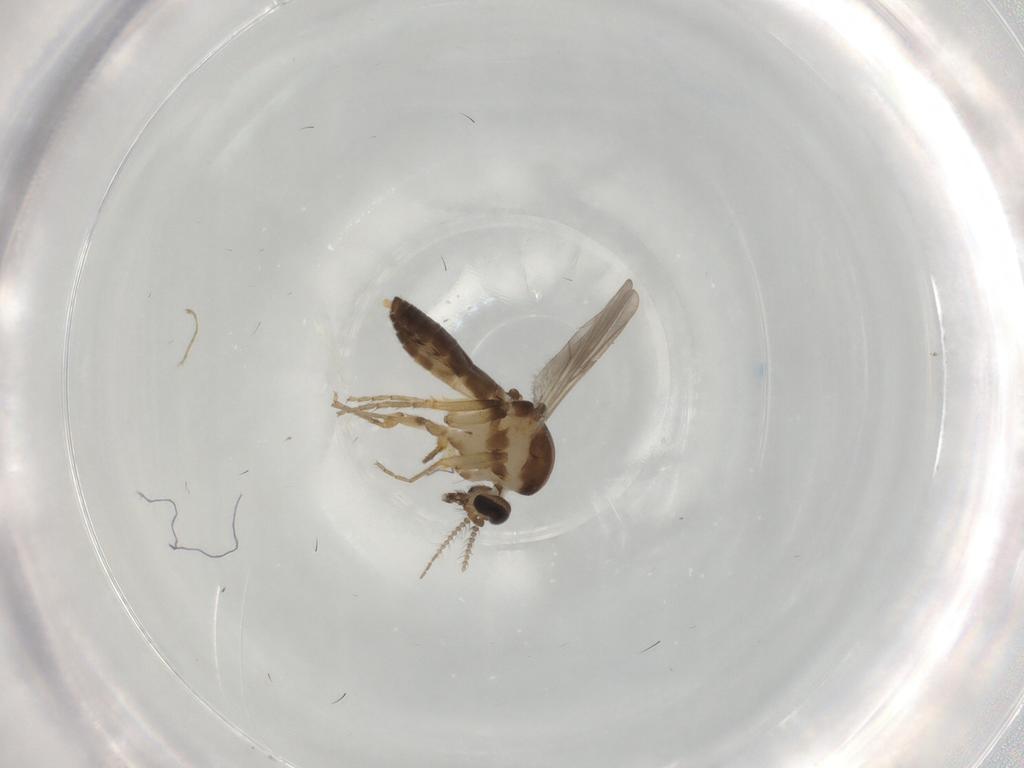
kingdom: Animalia
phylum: Arthropoda
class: Insecta
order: Diptera
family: Ceratopogonidae
